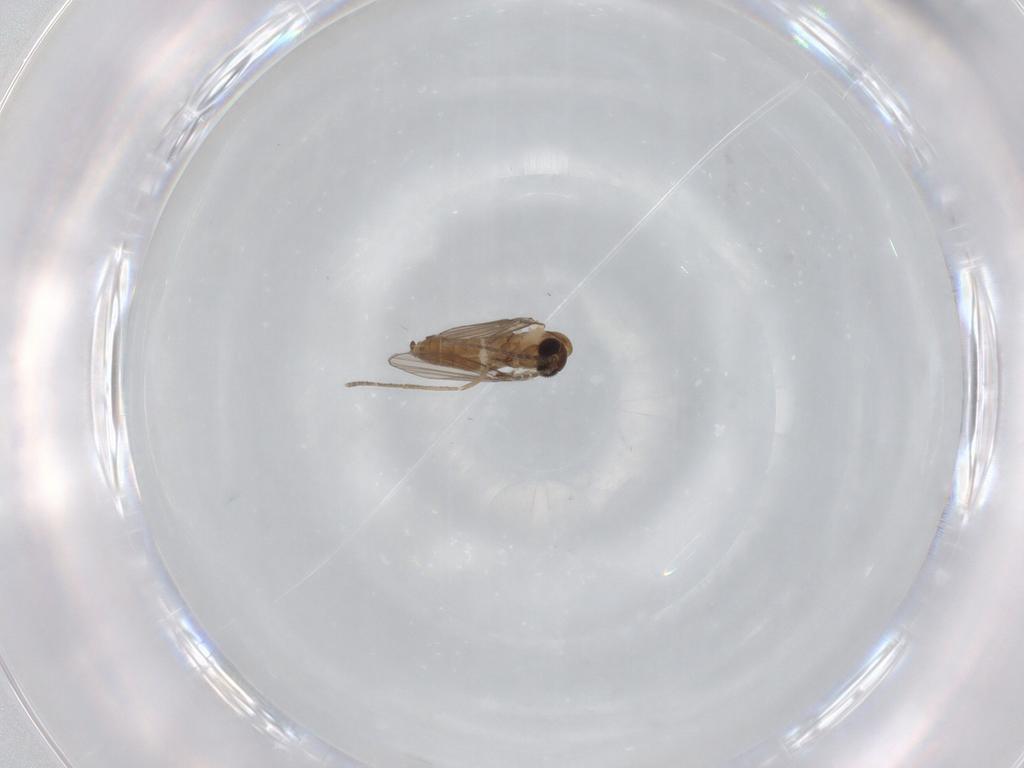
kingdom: Animalia
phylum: Arthropoda
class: Insecta
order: Diptera
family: Psychodidae
